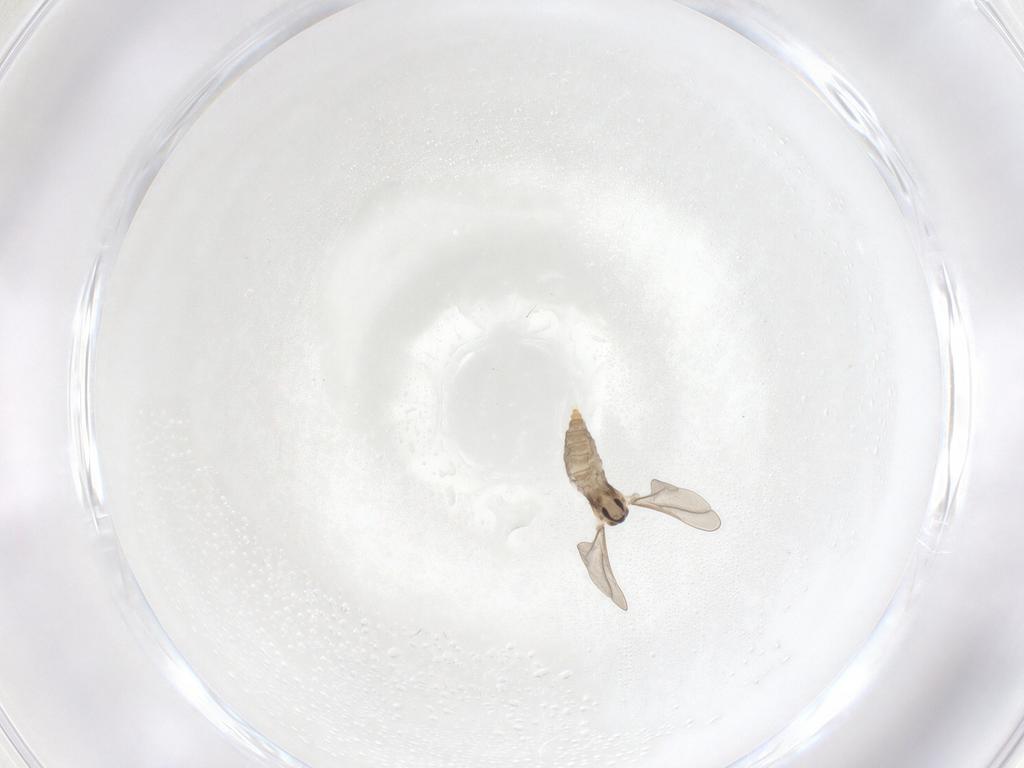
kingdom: Animalia
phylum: Arthropoda
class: Insecta
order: Diptera
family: Cecidomyiidae
